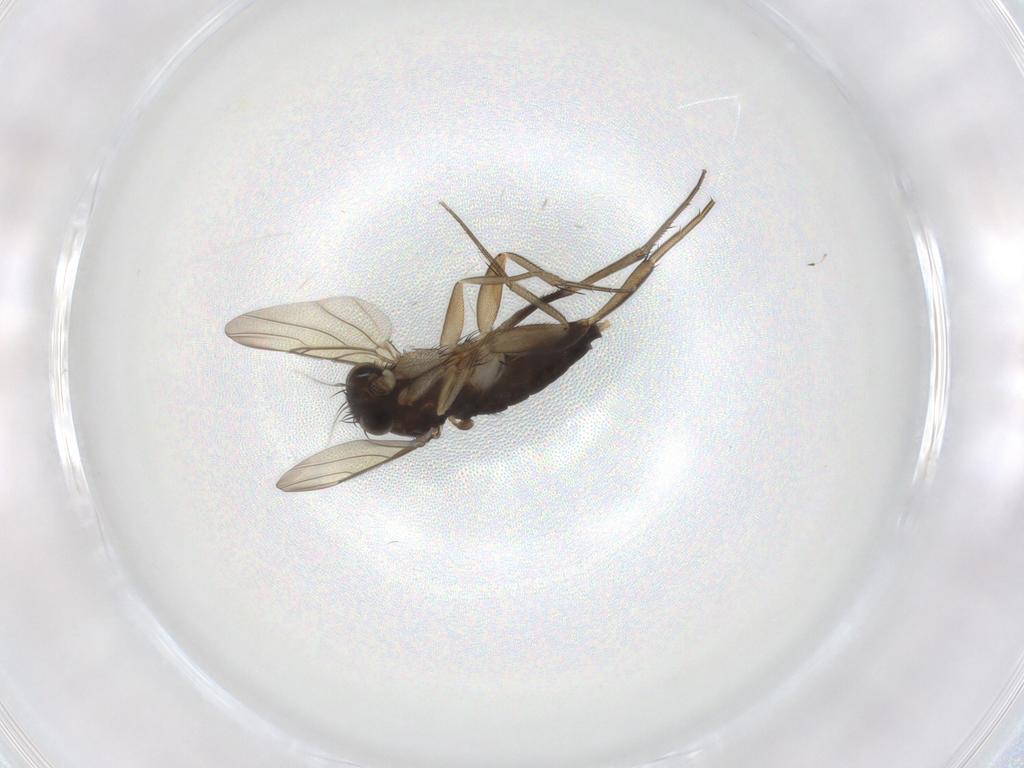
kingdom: Animalia
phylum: Arthropoda
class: Insecta
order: Diptera
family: Phoridae
